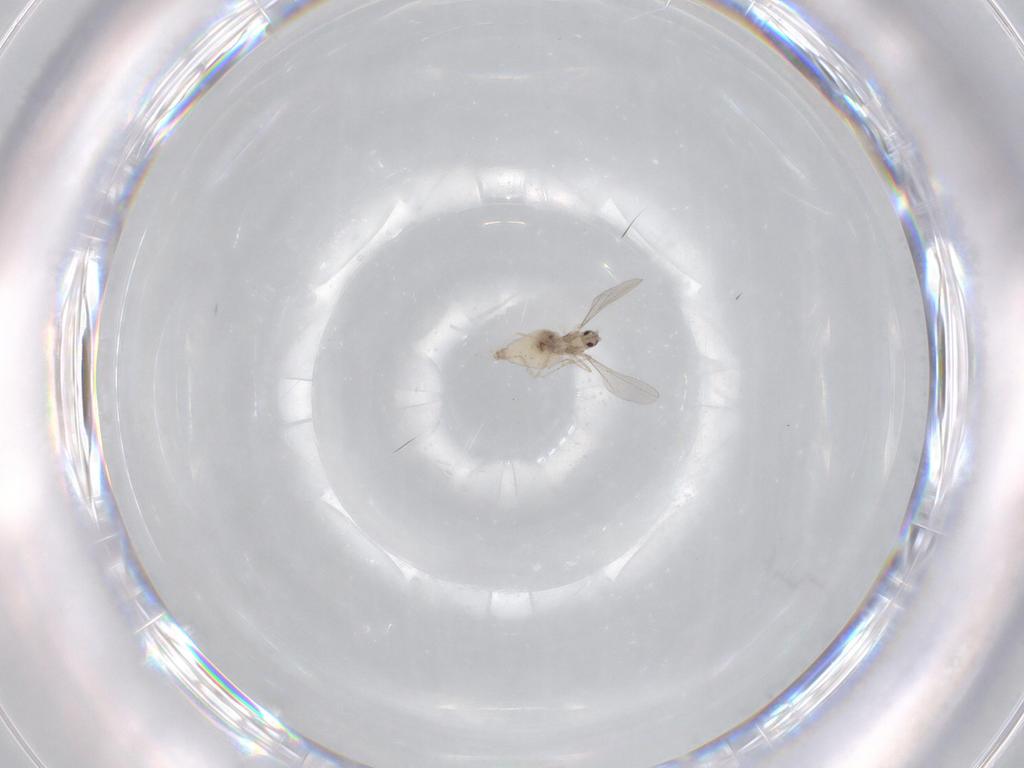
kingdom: Animalia
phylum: Arthropoda
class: Insecta
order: Diptera
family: Cecidomyiidae
